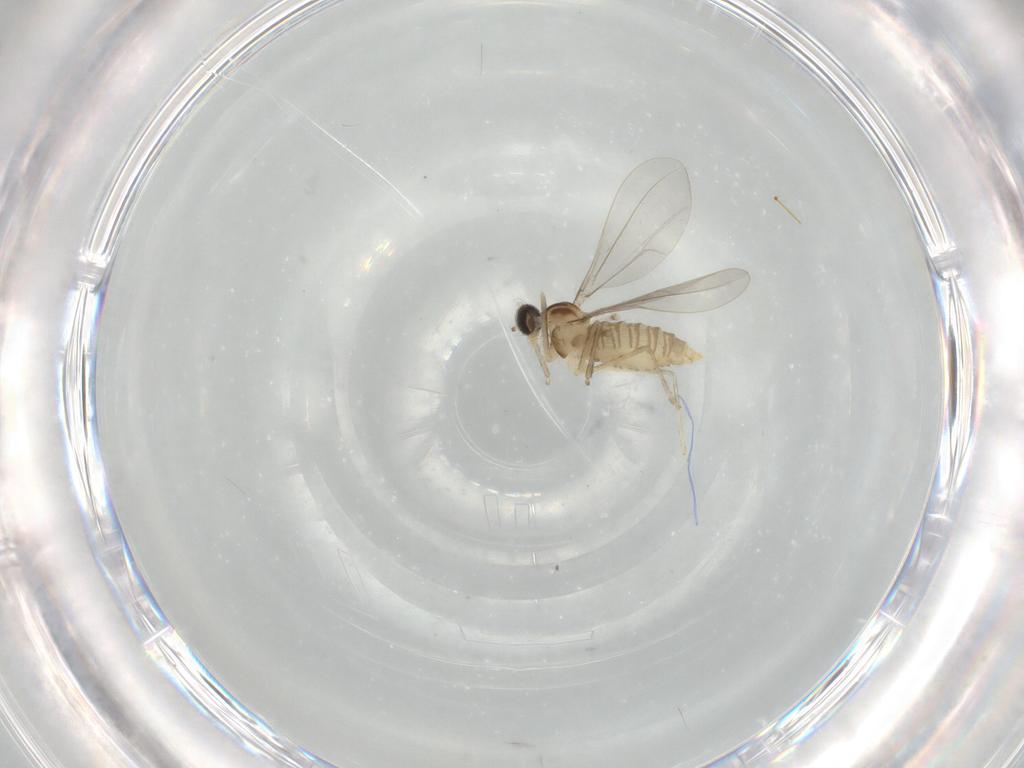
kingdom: Animalia
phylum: Arthropoda
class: Insecta
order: Diptera
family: Cecidomyiidae
